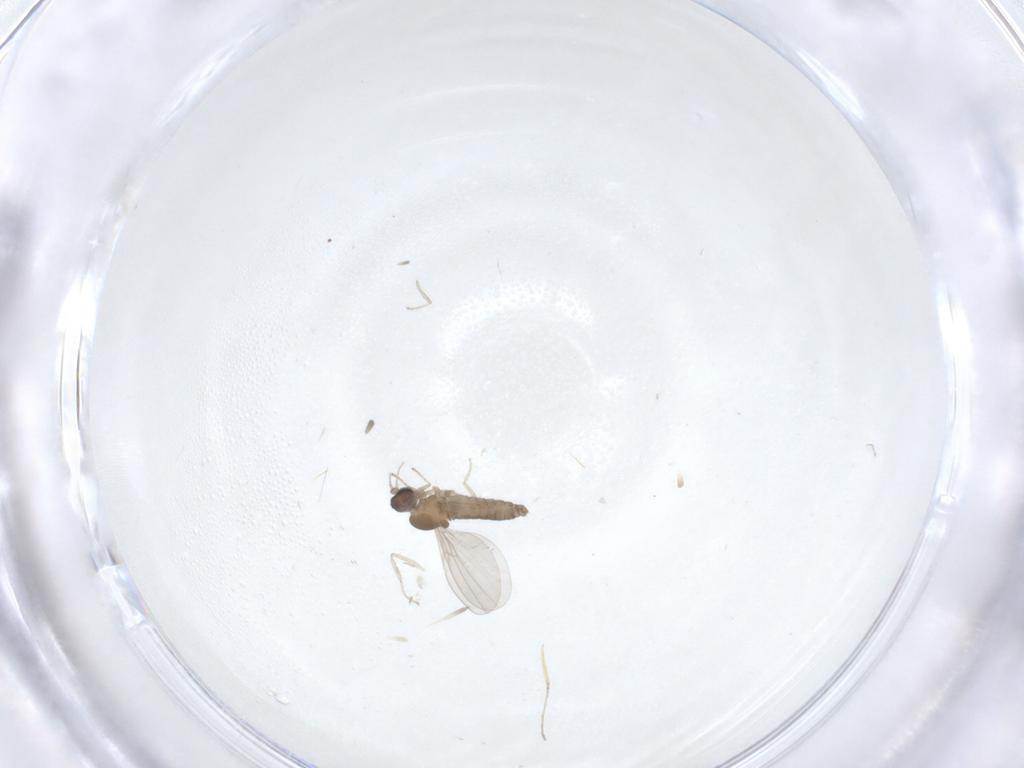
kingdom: Animalia
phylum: Arthropoda
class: Insecta
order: Diptera
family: Cecidomyiidae
